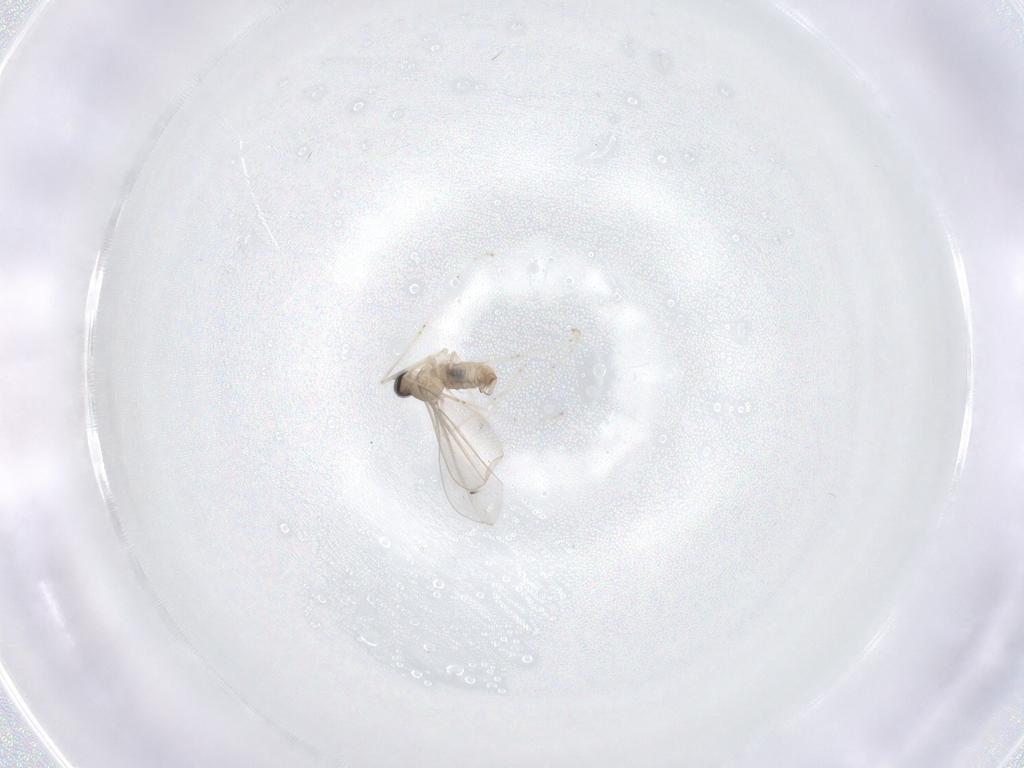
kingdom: Animalia
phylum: Arthropoda
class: Insecta
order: Diptera
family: Cecidomyiidae
